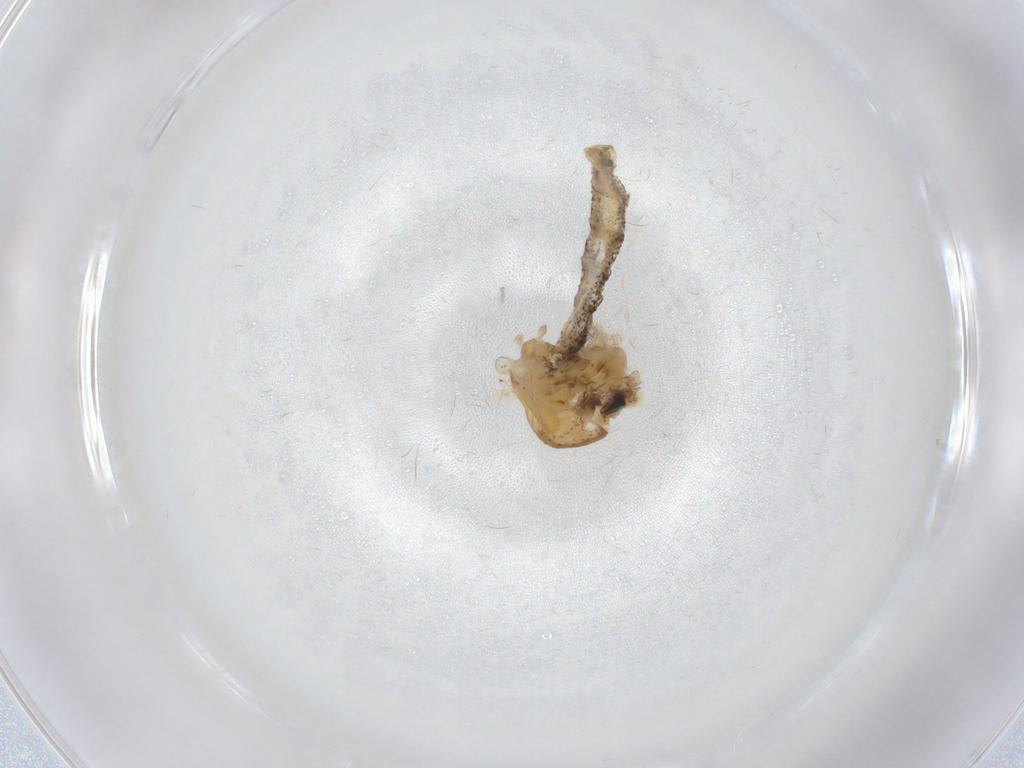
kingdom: Animalia
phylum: Arthropoda
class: Insecta
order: Diptera
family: Chaoboridae
